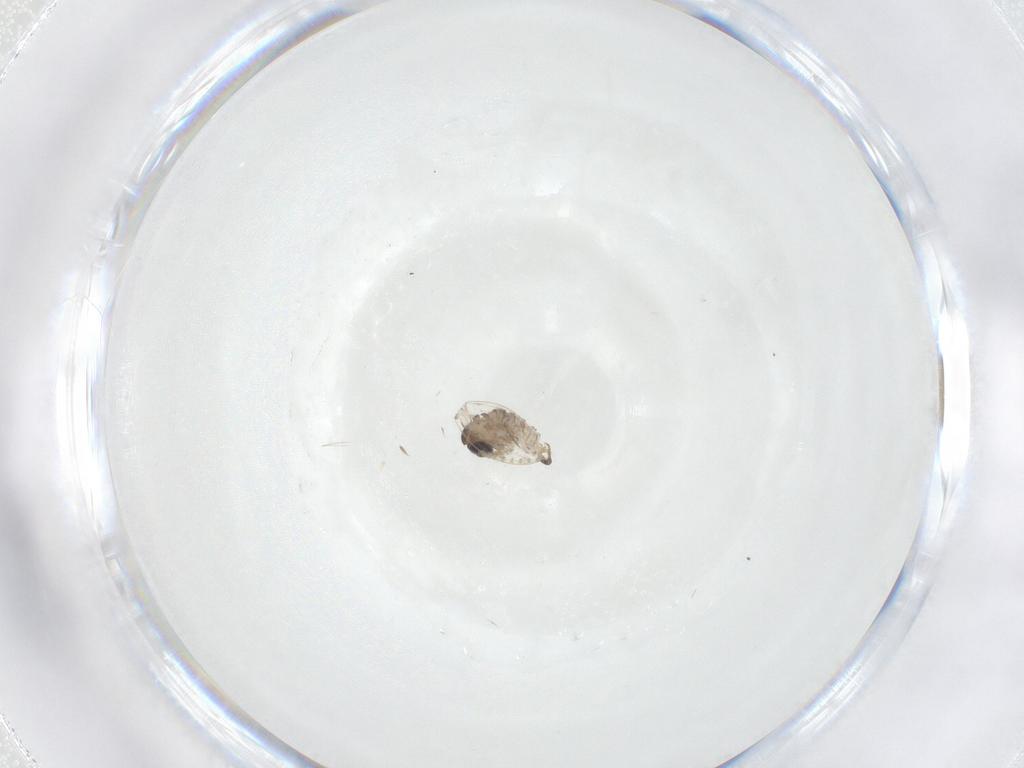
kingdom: Animalia
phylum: Arthropoda
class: Insecta
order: Diptera
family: Psychodidae
